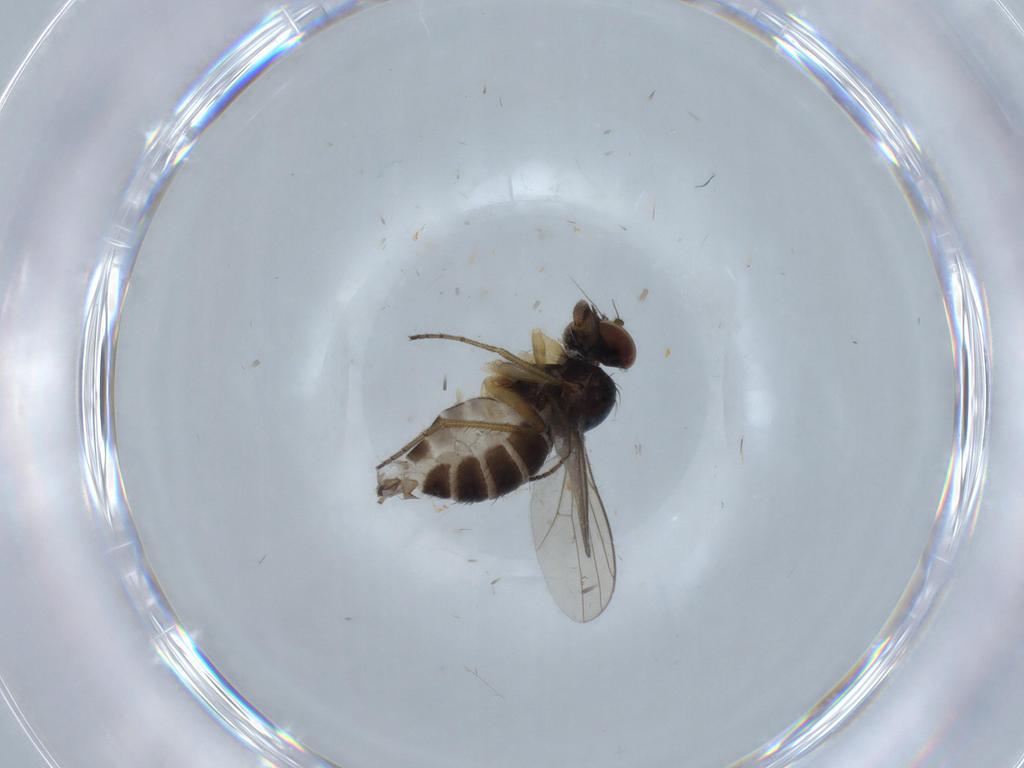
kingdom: Animalia
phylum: Arthropoda
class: Insecta
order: Diptera
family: Dolichopodidae
